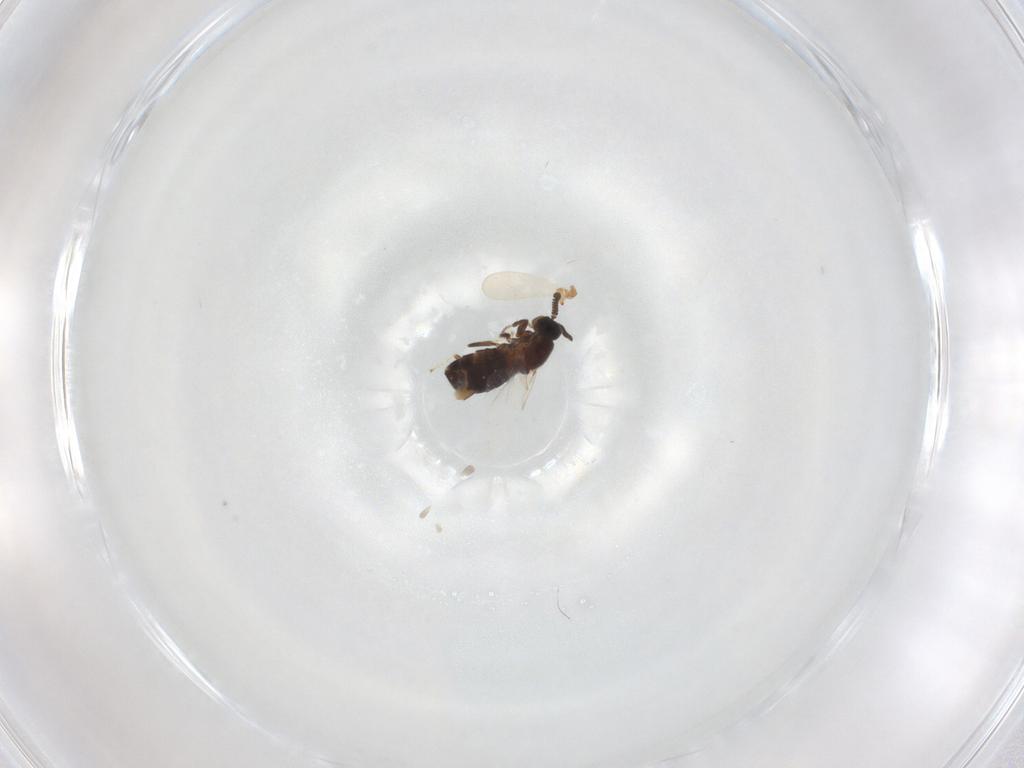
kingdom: Animalia
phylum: Arthropoda
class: Insecta
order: Diptera
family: Scatopsidae
